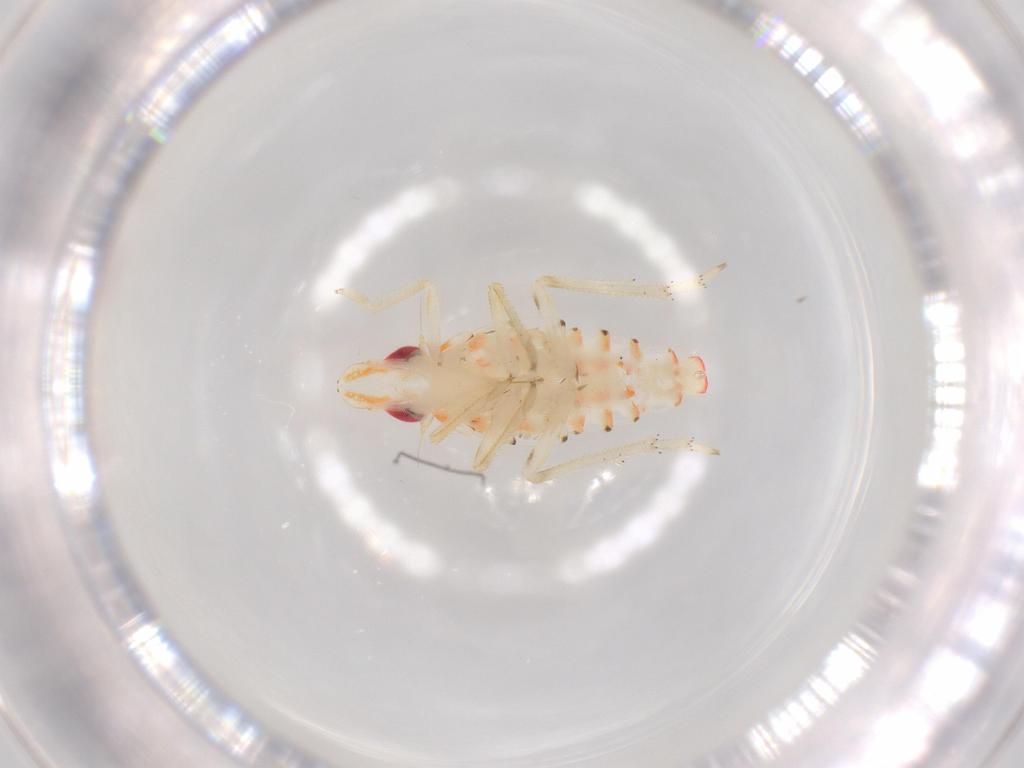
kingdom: Animalia
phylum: Arthropoda
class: Insecta
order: Hemiptera
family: Tropiduchidae
